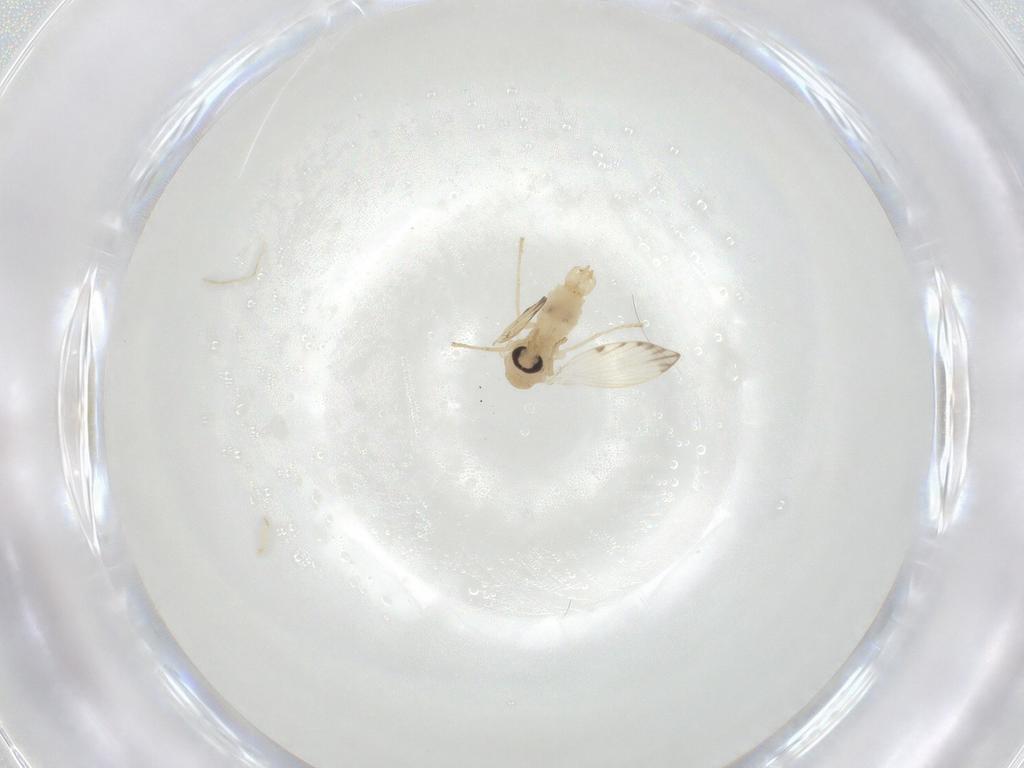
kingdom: Animalia
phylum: Arthropoda
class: Insecta
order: Diptera
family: Psychodidae
